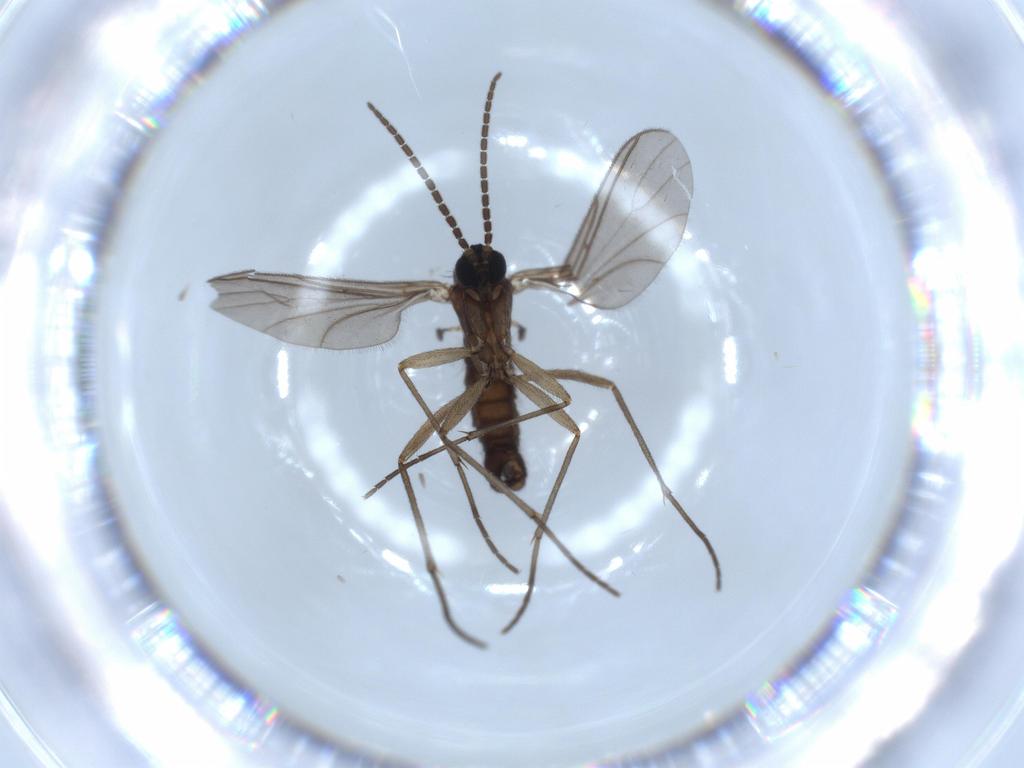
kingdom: Animalia
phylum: Arthropoda
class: Insecta
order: Diptera
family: Sciaridae
